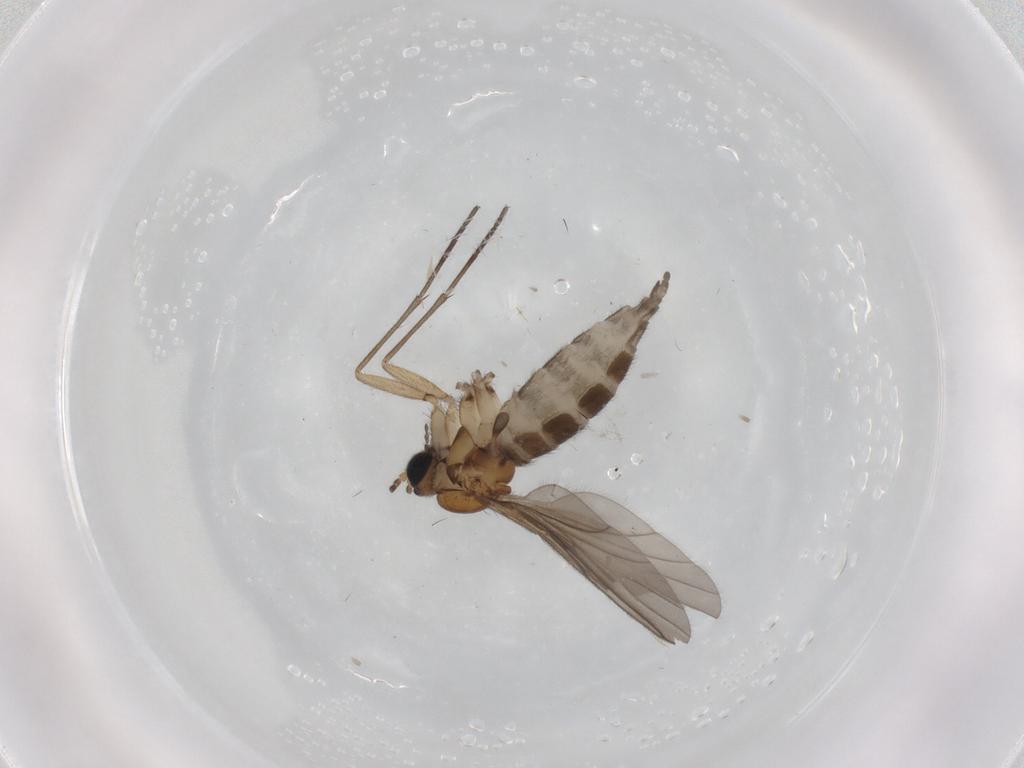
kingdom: Animalia
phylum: Arthropoda
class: Insecta
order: Diptera
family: Sciaridae
